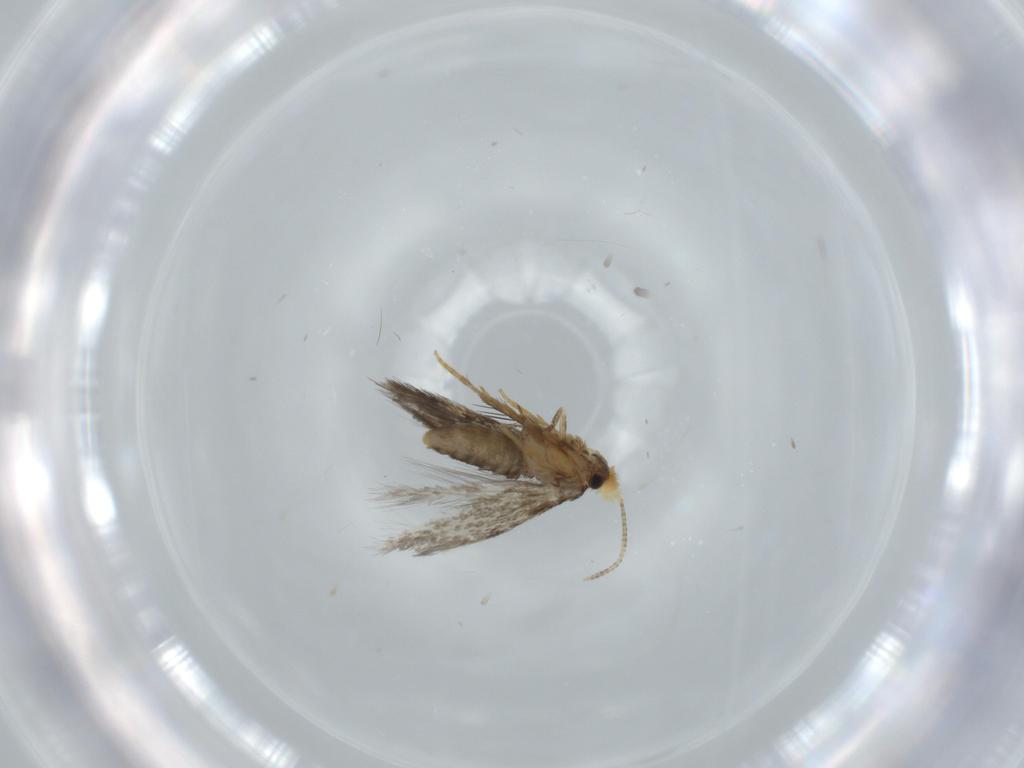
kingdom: Animalia
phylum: Arthropoda
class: Insecta
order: Lepidoptera
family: Nepticulidae
